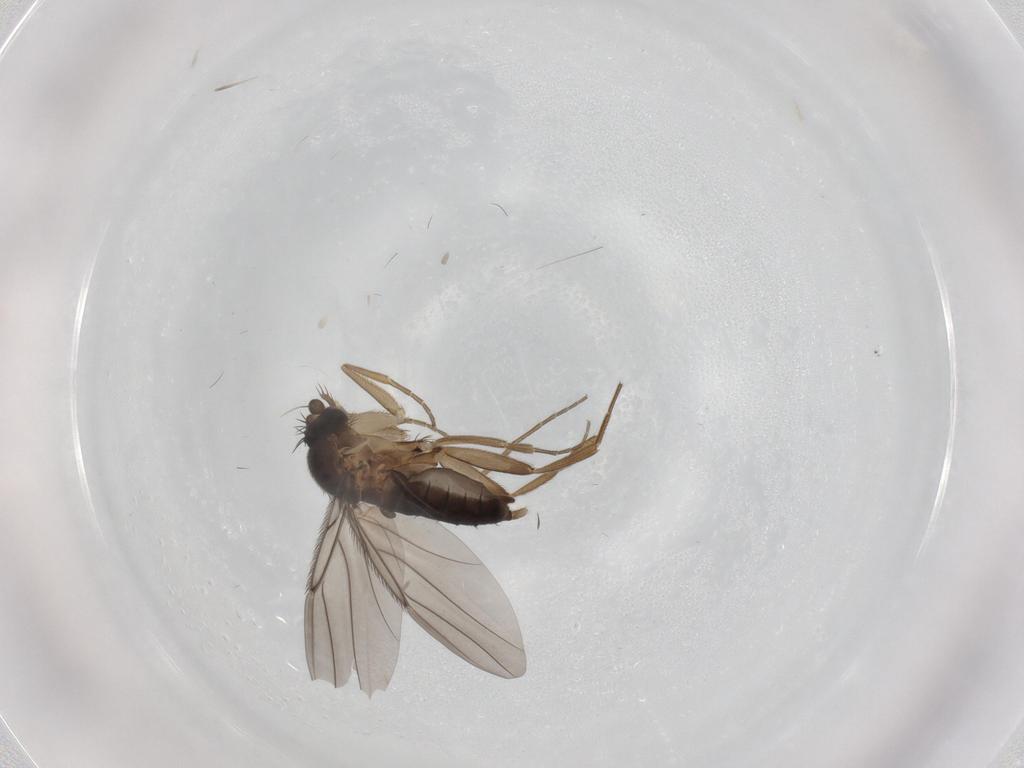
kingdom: Animalia
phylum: Arthropoda
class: Insecta
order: Diptera
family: Phoridae
